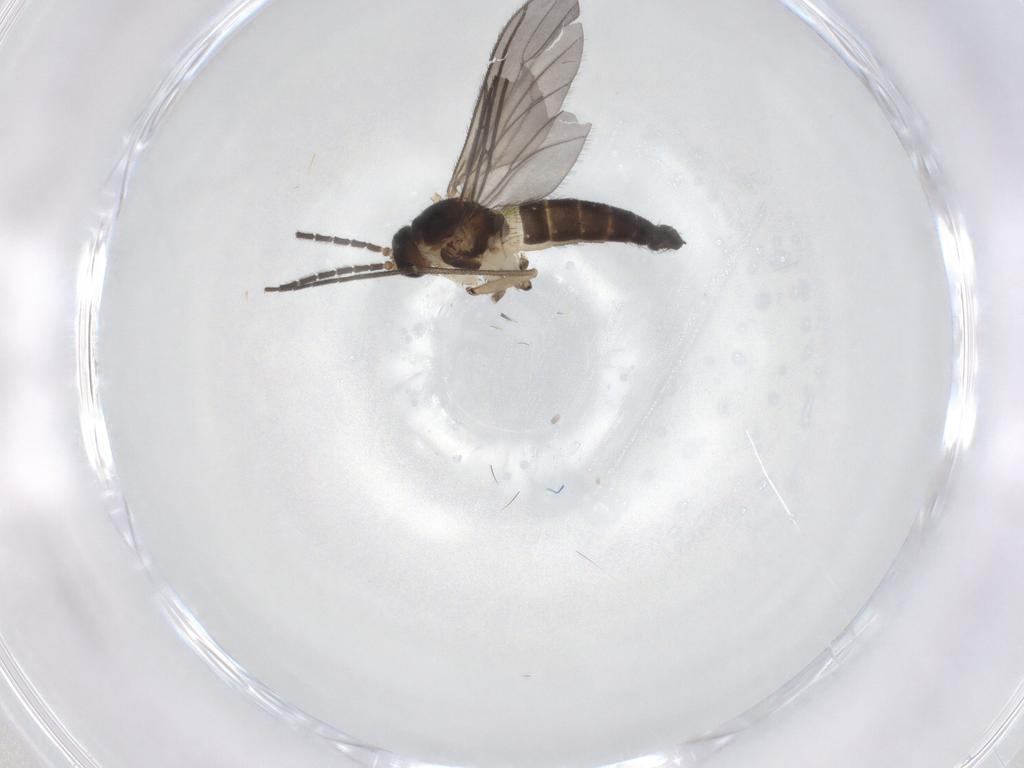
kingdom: Animalia
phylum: Arthropoda
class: Insecta
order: Diptera
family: Sciaridae
